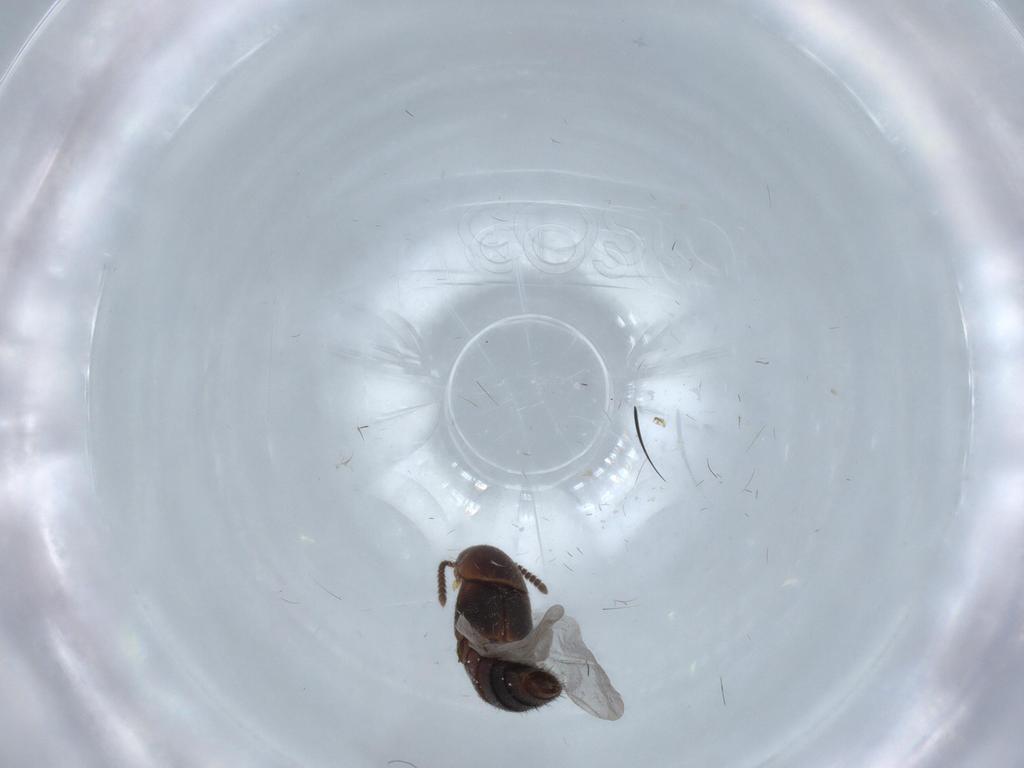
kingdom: Animalia
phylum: Arthropoda
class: Insecta
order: Coleoptera
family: Staphylinidae
